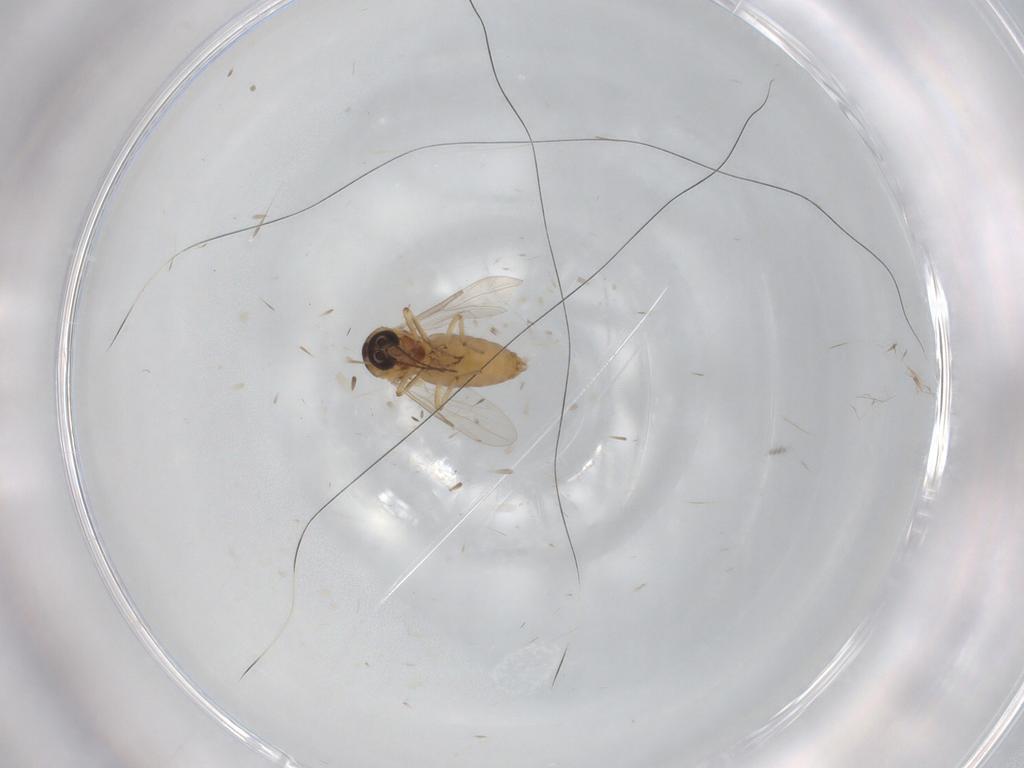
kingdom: Animalia
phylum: Arthropoda
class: Insecta
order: Diptera
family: Ceratopogonidae
